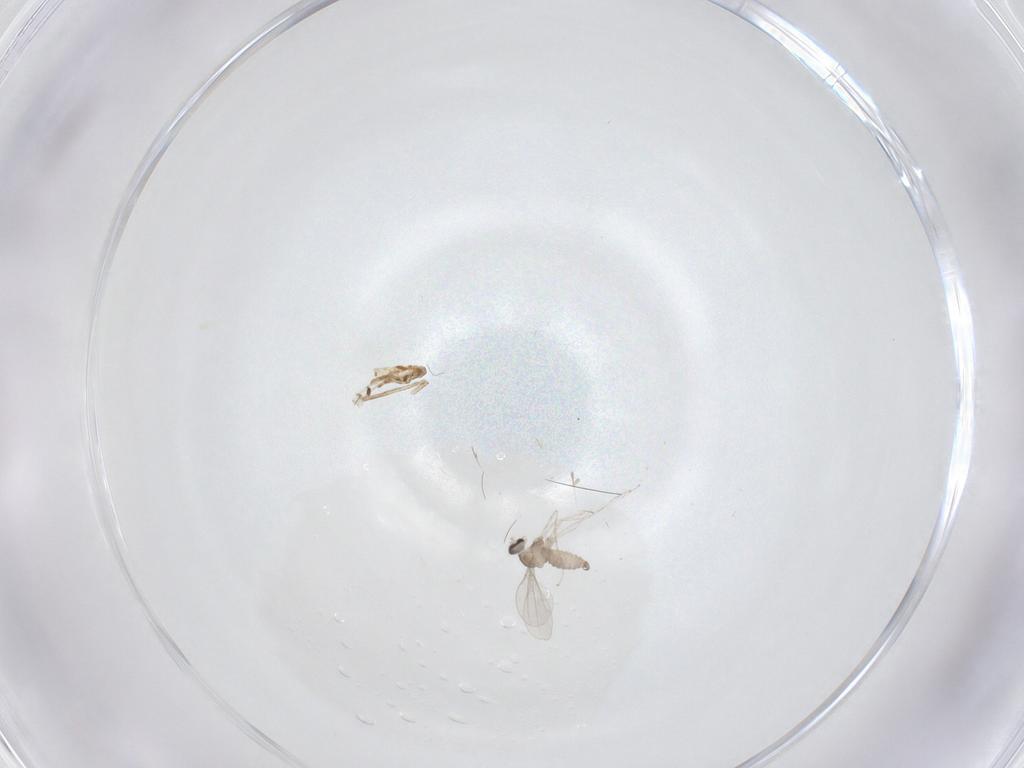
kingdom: Animalia
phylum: Arthropoda
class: Insecta
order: Diptera
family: Cecidomyiidae
